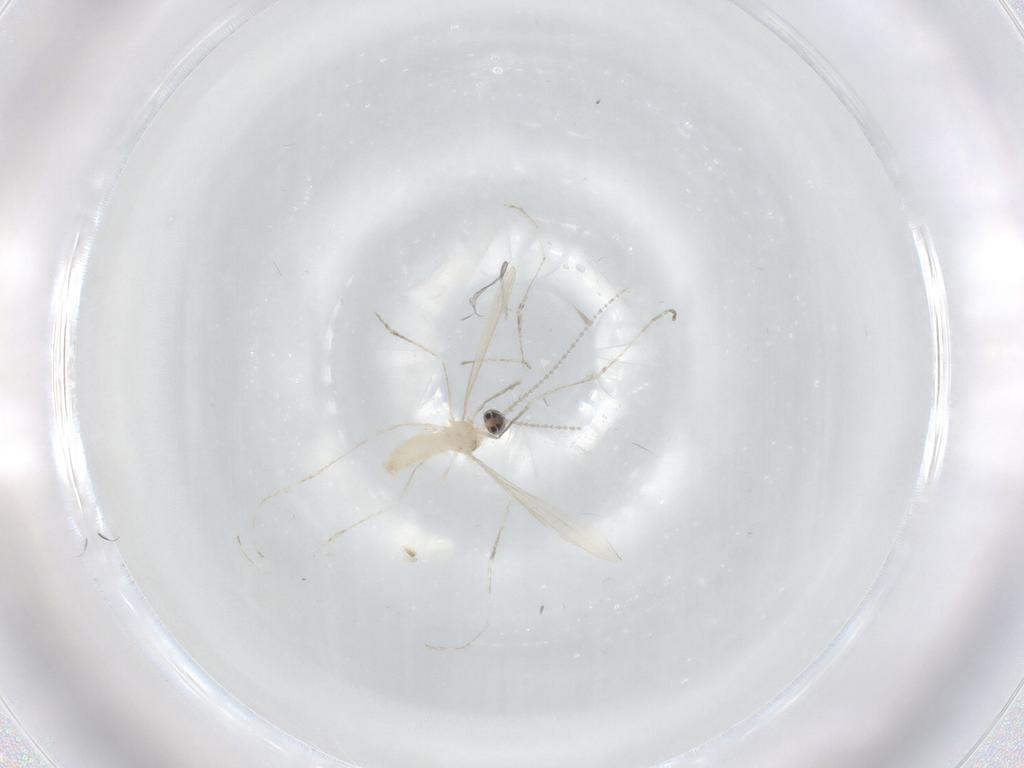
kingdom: Animalia
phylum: Arthropoda
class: Insecta
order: Diptera
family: Cecidomyiidae
